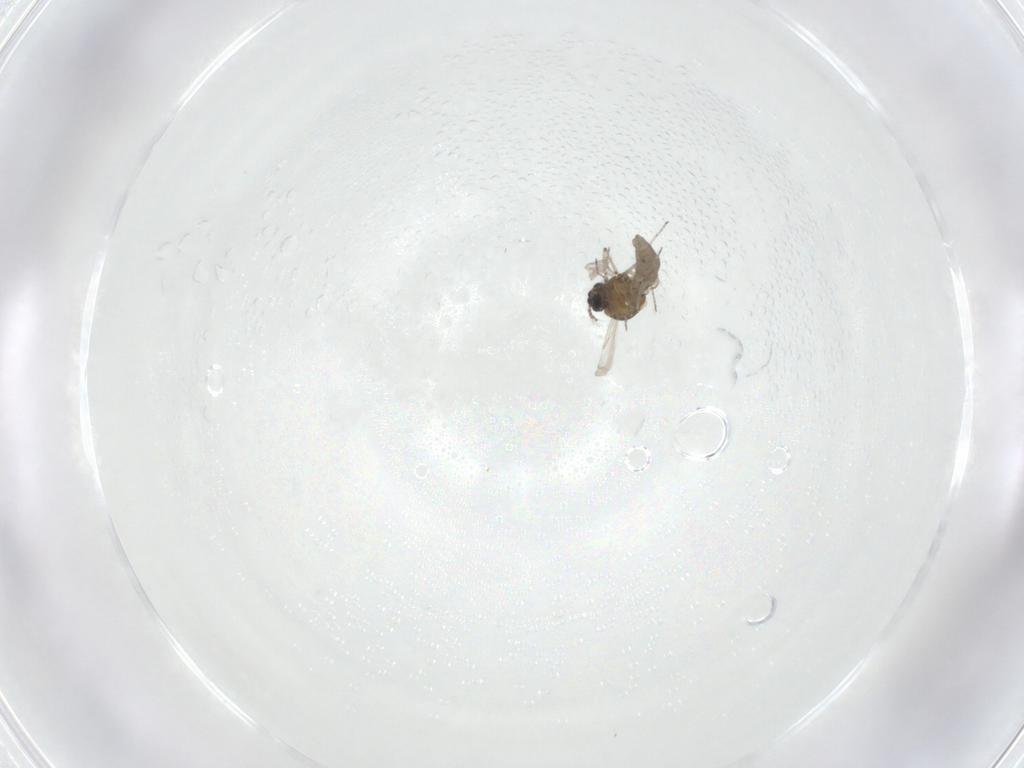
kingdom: Animalia
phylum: Arthropoda
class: Insecta
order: Diptera
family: Ceratopogonidae
